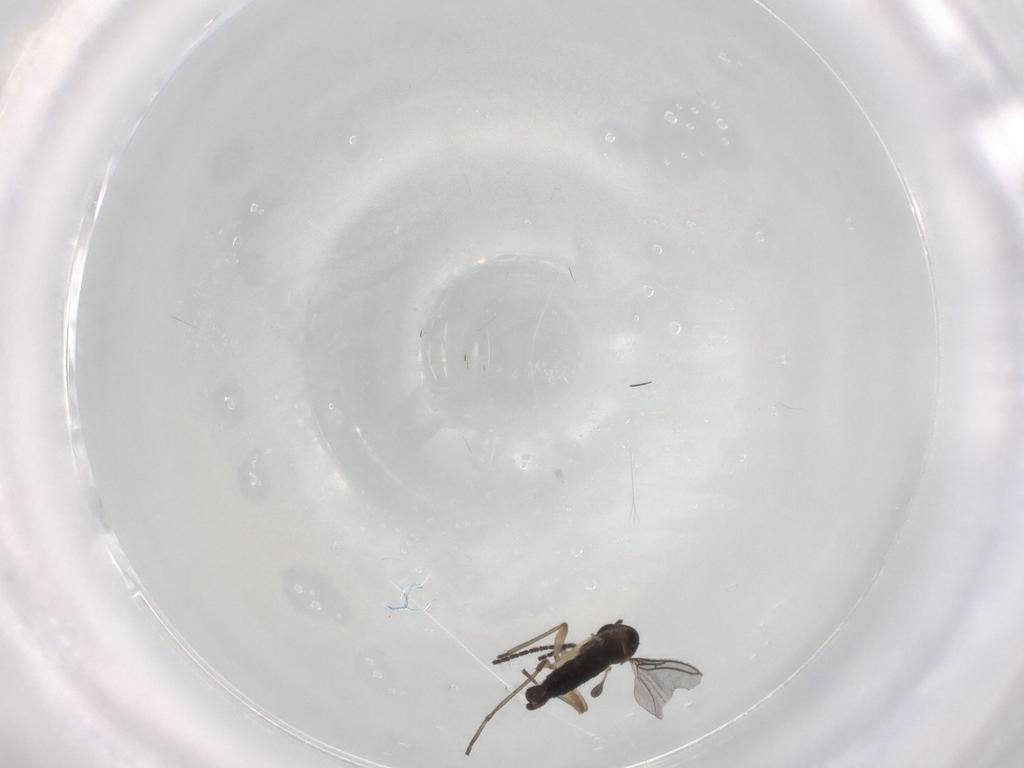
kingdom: Animalia
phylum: Arthropoda
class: Insecta
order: Diptera
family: Sciaridae
